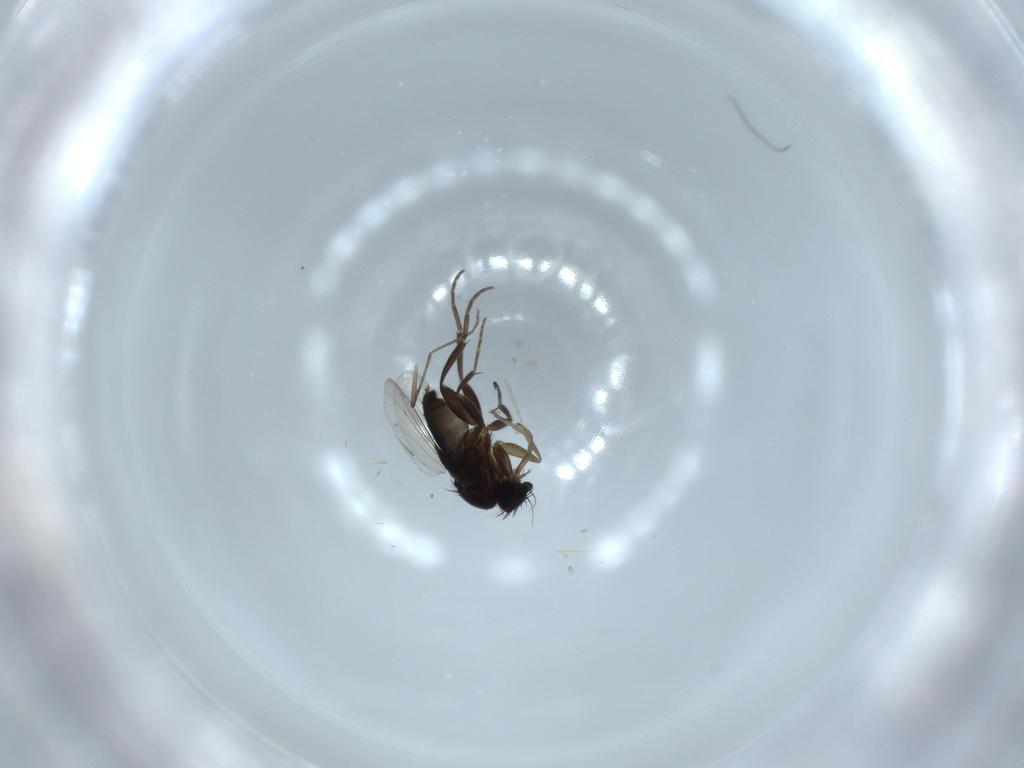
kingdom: Animalia
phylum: Arthropoda
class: Insecta
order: Diptera
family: Phoridae
